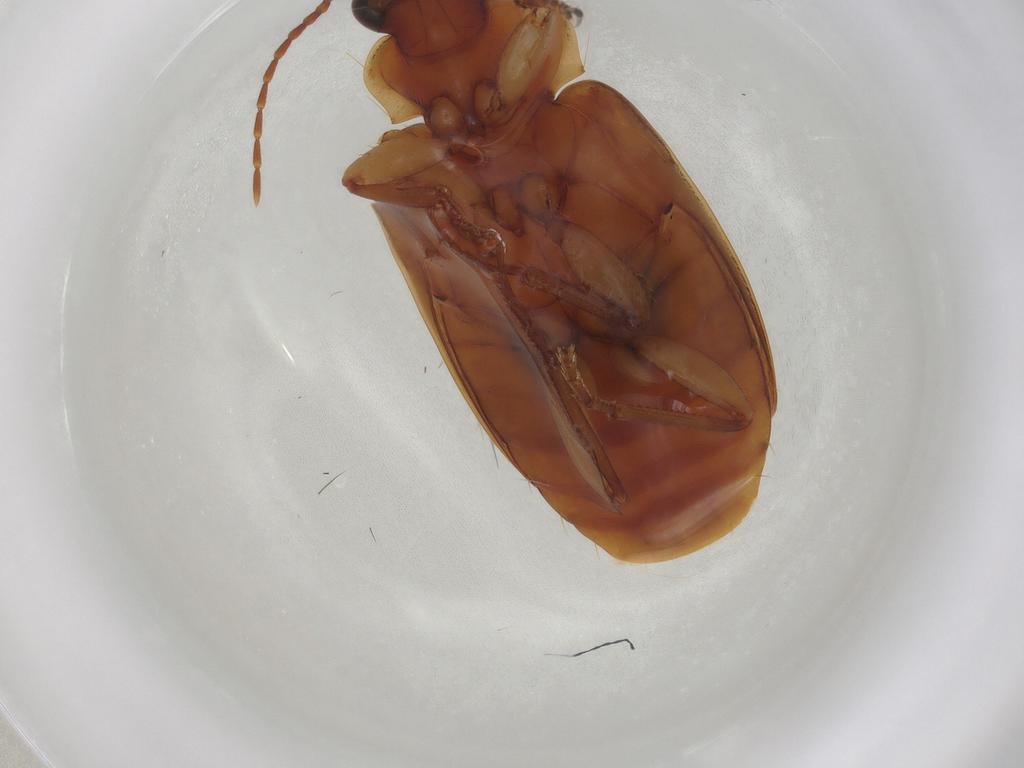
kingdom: Animalia
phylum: Arthropoda
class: Insecta
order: Coleoptera
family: Carabidae
